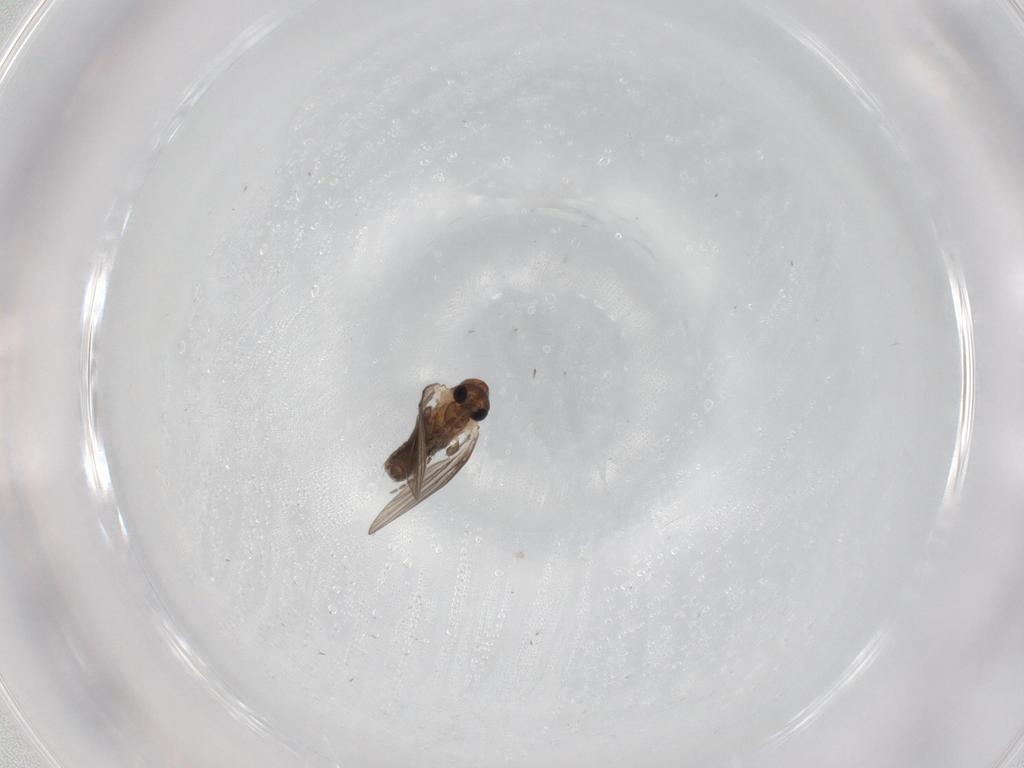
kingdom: Animalia
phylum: Arthropoda
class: Insecta
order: Diptera
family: Psychodidae
